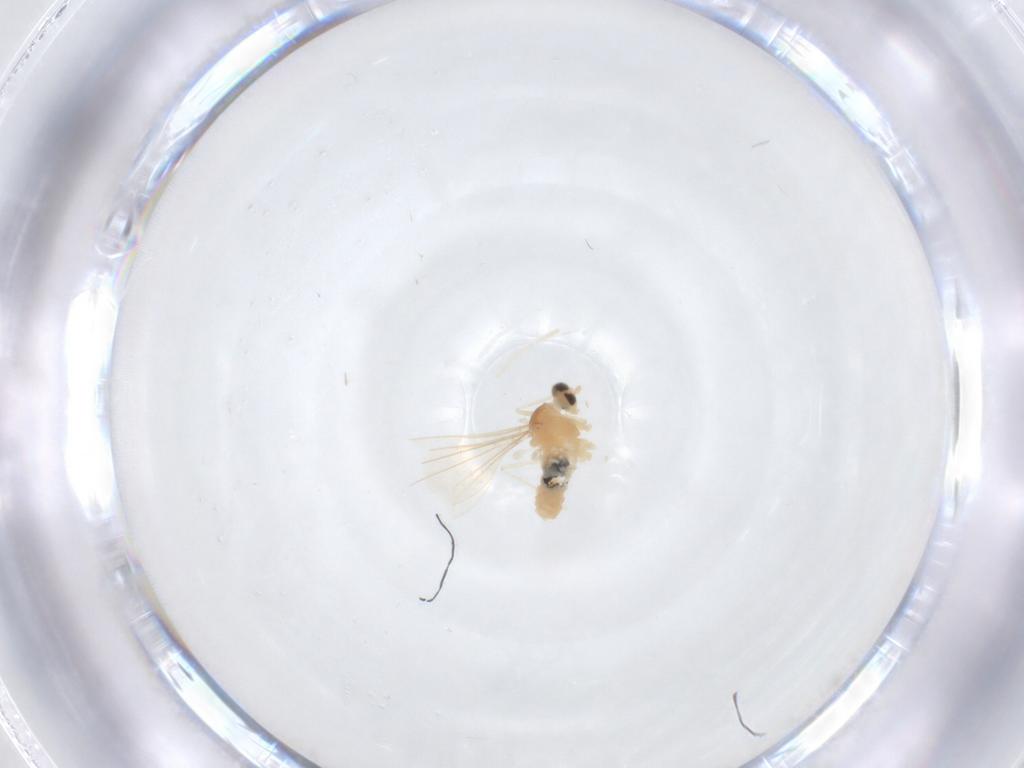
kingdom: Animalia
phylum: Arthropoda
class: Insecta
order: Diptera
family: Cecidomyiidae
